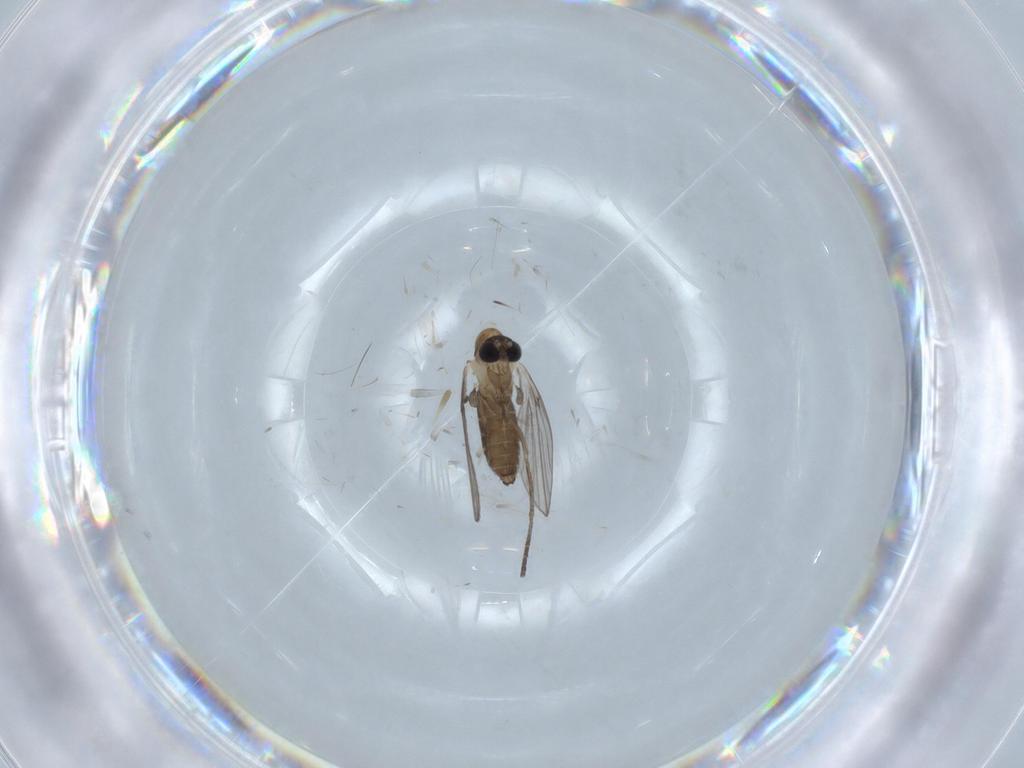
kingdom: Animalia
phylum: Arthropoda
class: Insecta
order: Diptera
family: Psychodidae
